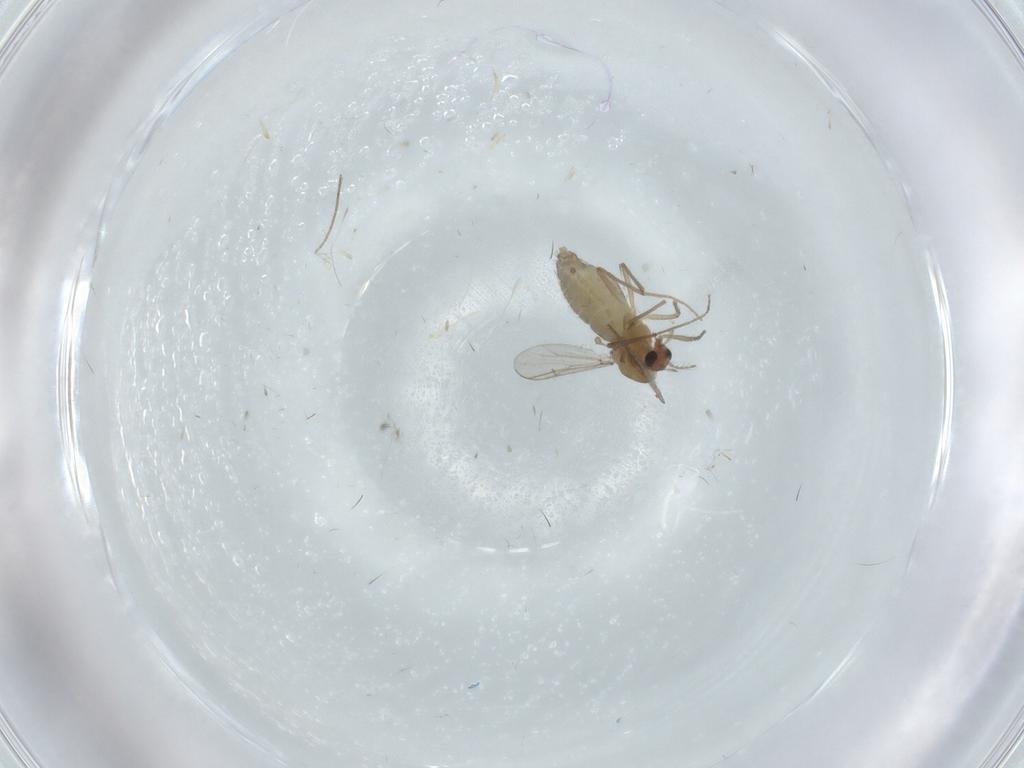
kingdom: Animalia
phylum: Arthropoda
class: Insecta
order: Diptera
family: Chironomidae
